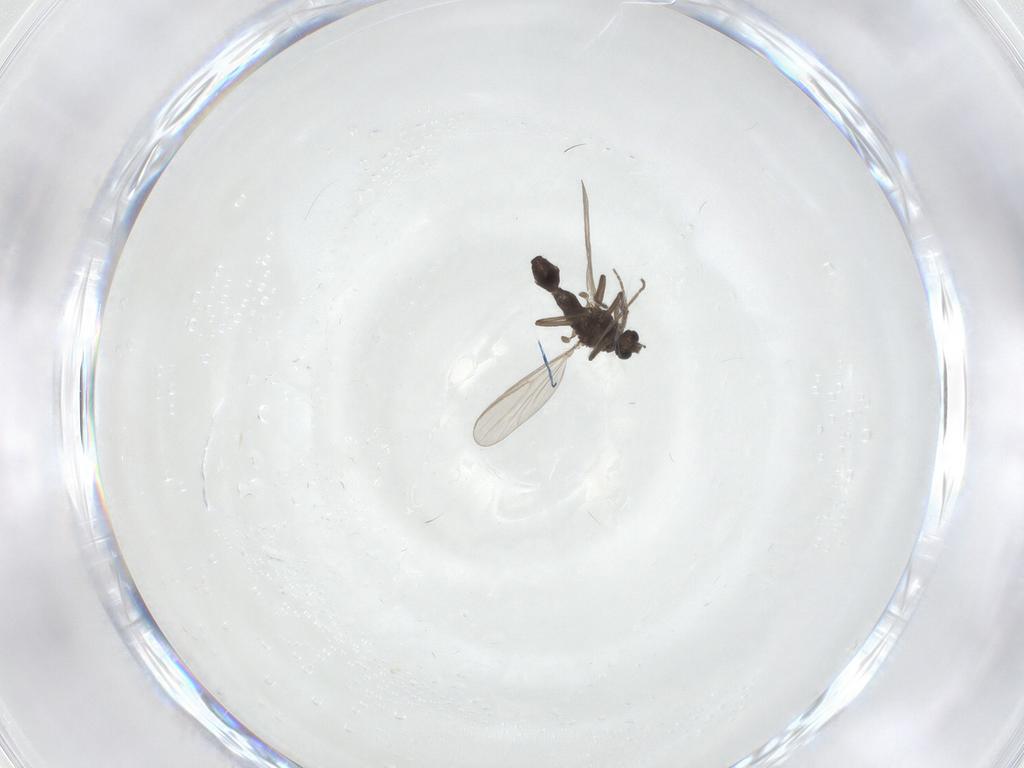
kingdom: Animalia
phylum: Arthropoda
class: Insecta
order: Diptera
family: Chironomidae
